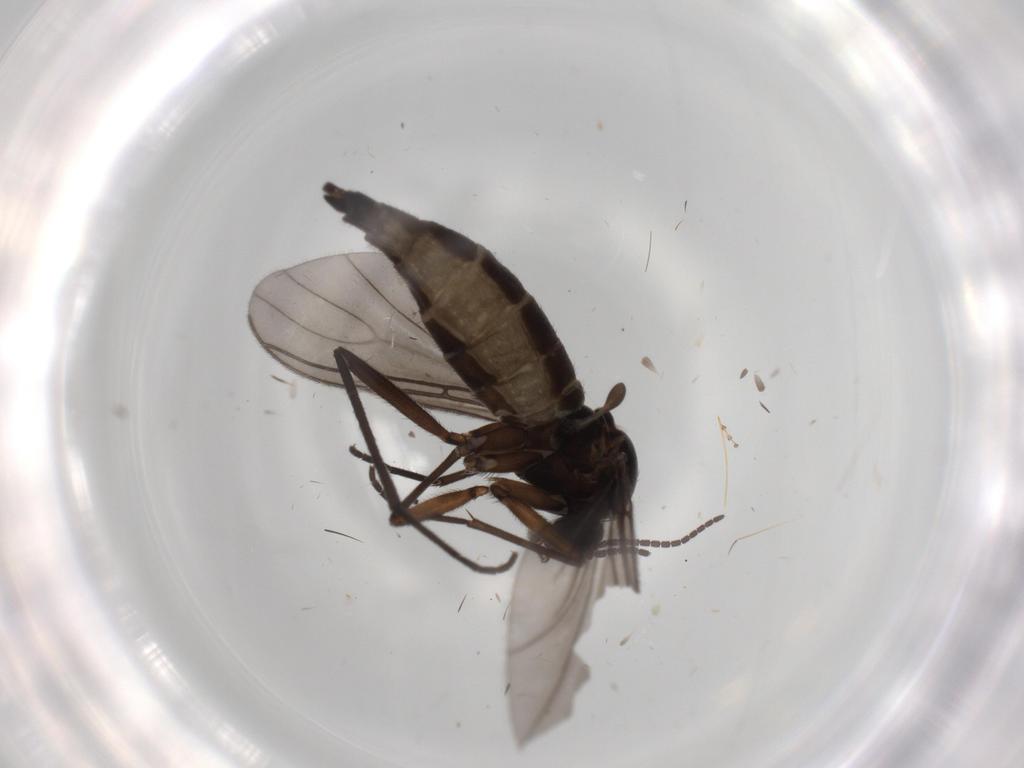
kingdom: Animalia
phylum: Arthropoda
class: Insecta
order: Diptera
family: Sciaridae
